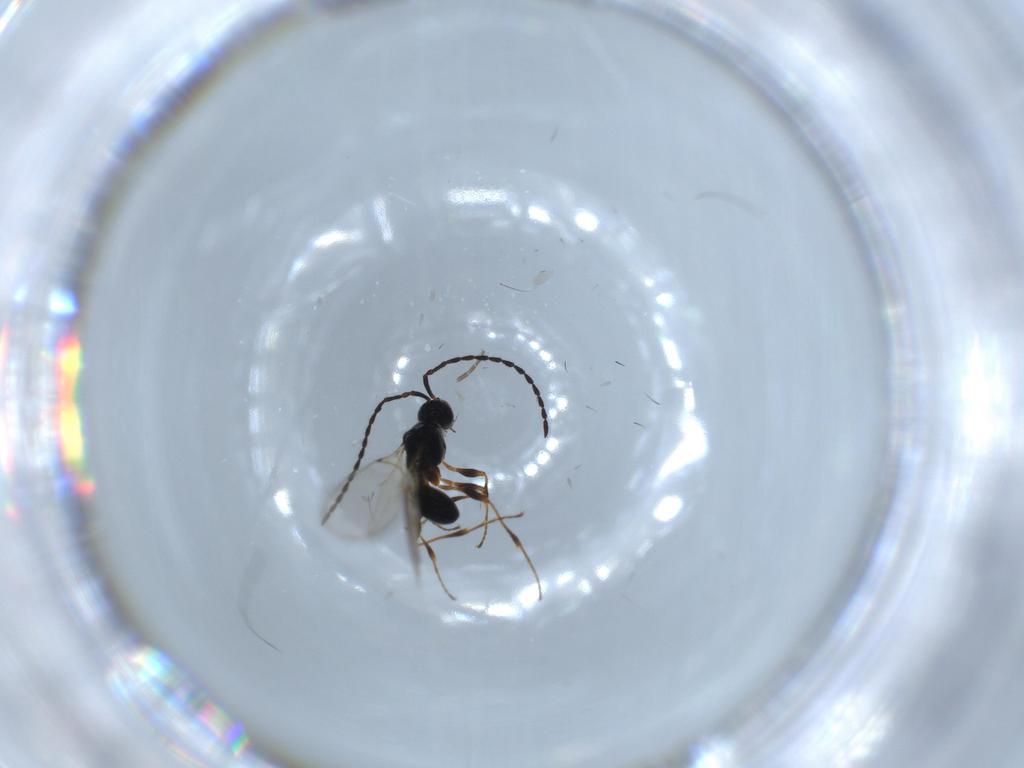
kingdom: Animalia
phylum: Arthropoda
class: Insecta
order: Hymenoptera
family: Diapriidae
